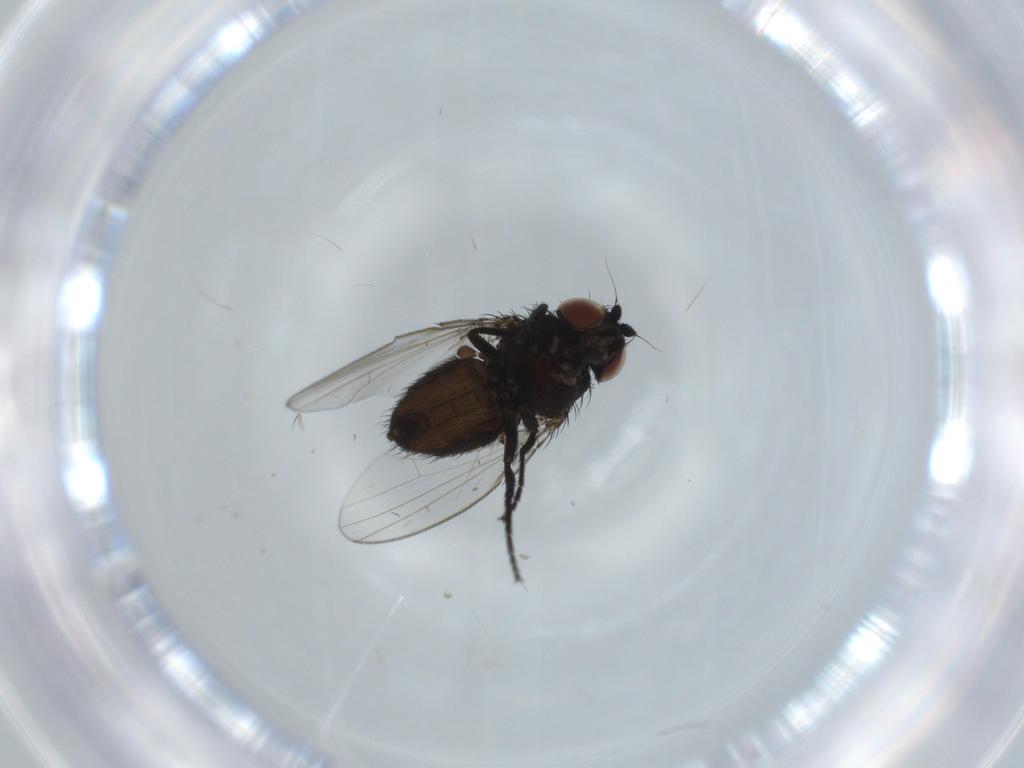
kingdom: Animalia
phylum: Arthropoda
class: Insecta
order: Diptera
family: Milichiidae
